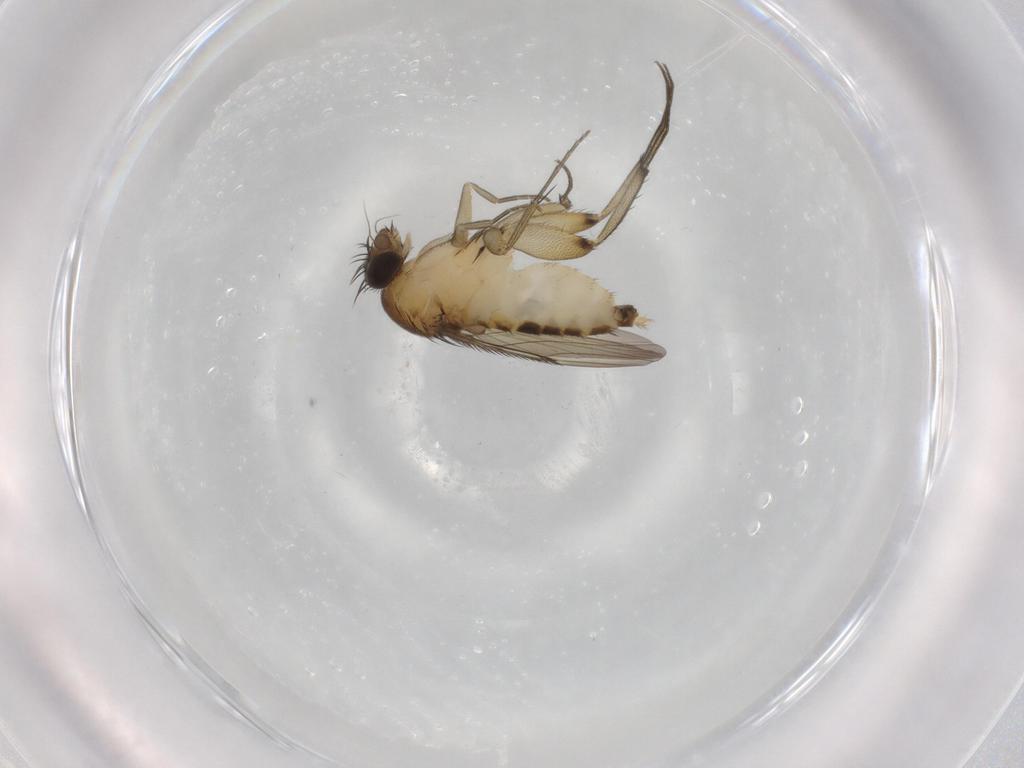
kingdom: Animalia
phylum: Arthropoda
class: Insecta
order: Diptera
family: Phoridae
